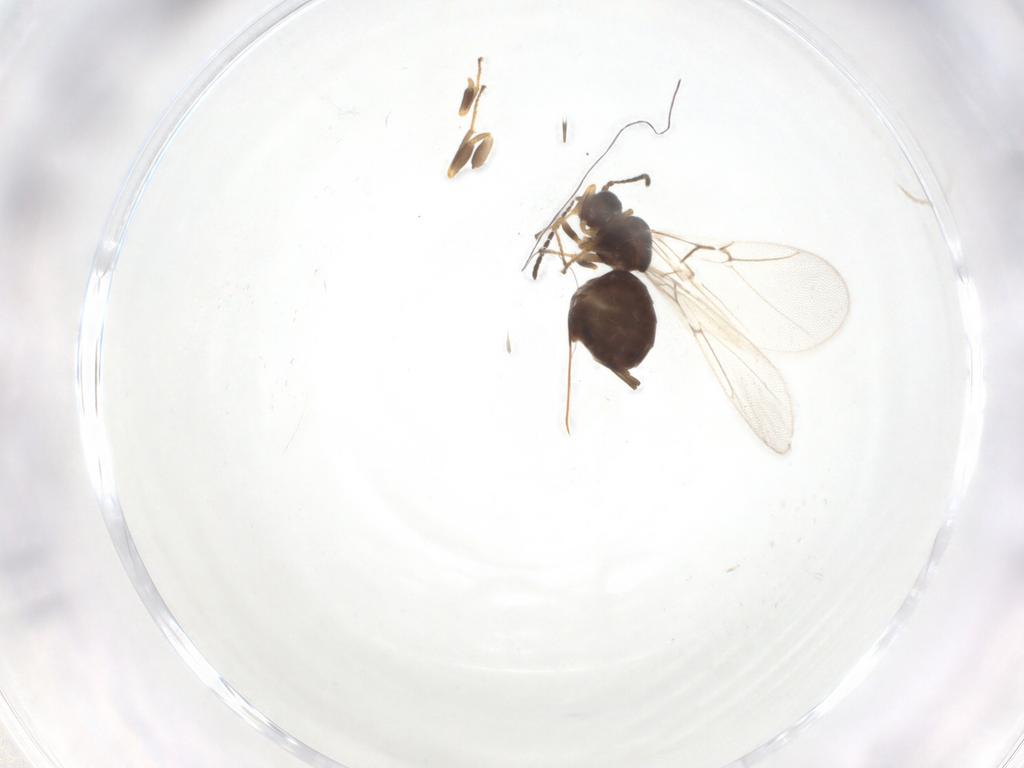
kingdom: Animalia
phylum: Arthropoda
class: Insecta
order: Hymenoptera
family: Cynipidae
